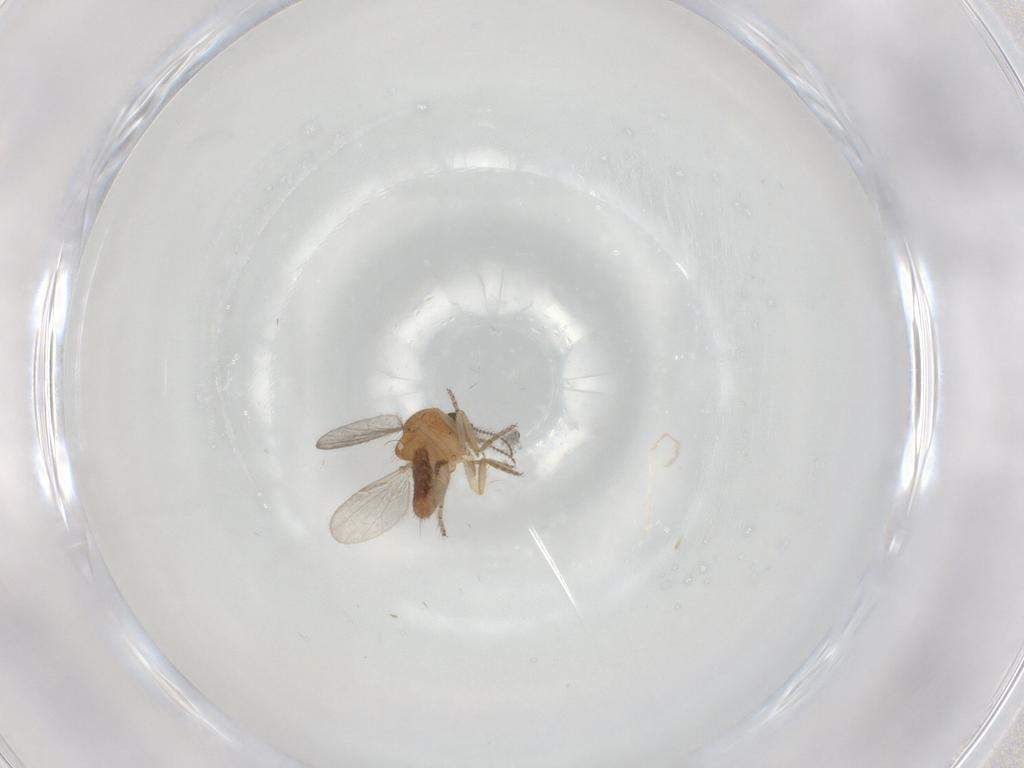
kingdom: Animalia
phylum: Arthropoda
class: Insecta
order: Diptera
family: Ceratopogonidae
